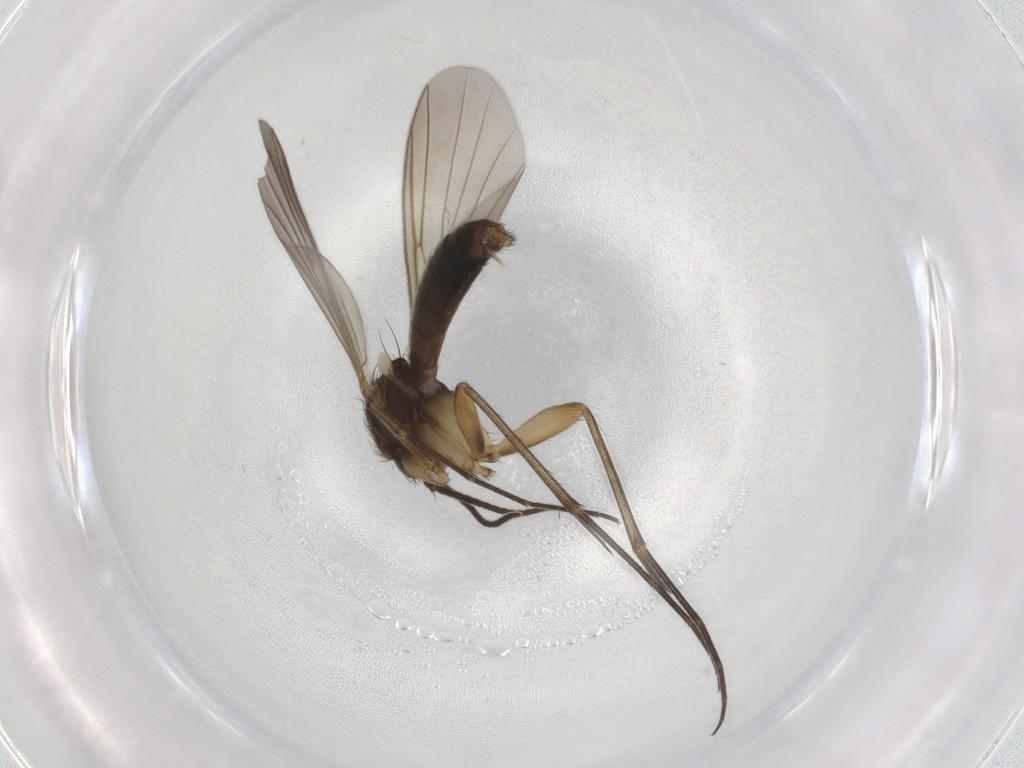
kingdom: Animalia
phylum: Arthropoda
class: Insecta
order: Diptera
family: Mycetophilidae
